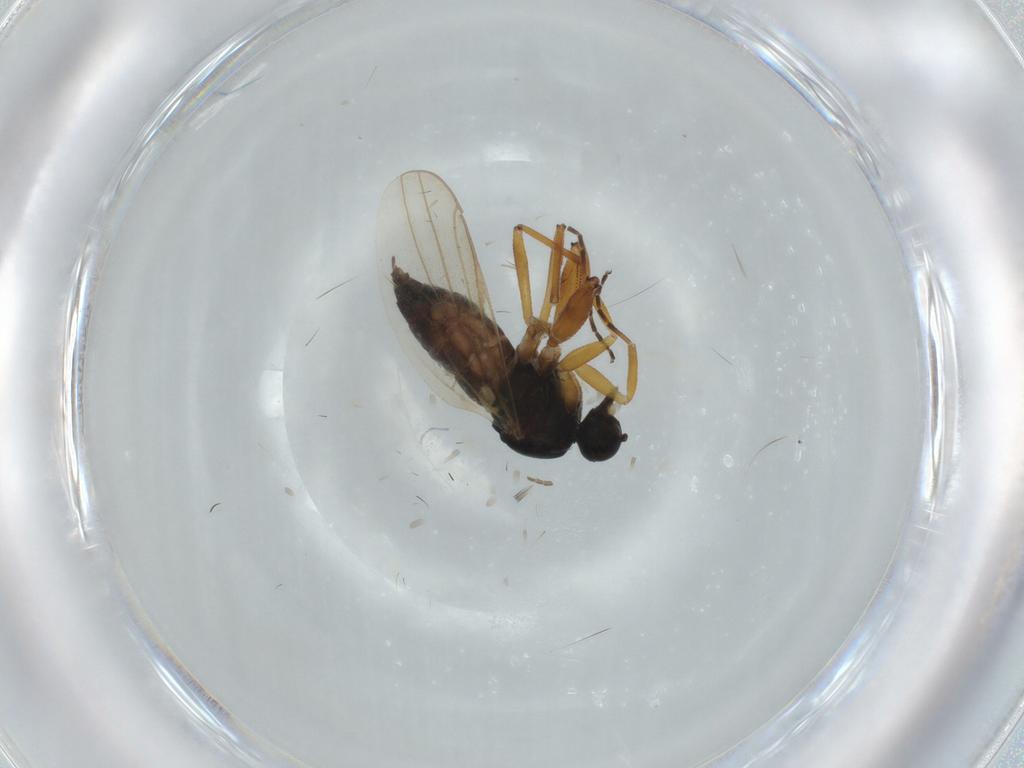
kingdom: Animalia
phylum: Arthropoda
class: Insecta
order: Diptera
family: Hybotidae
